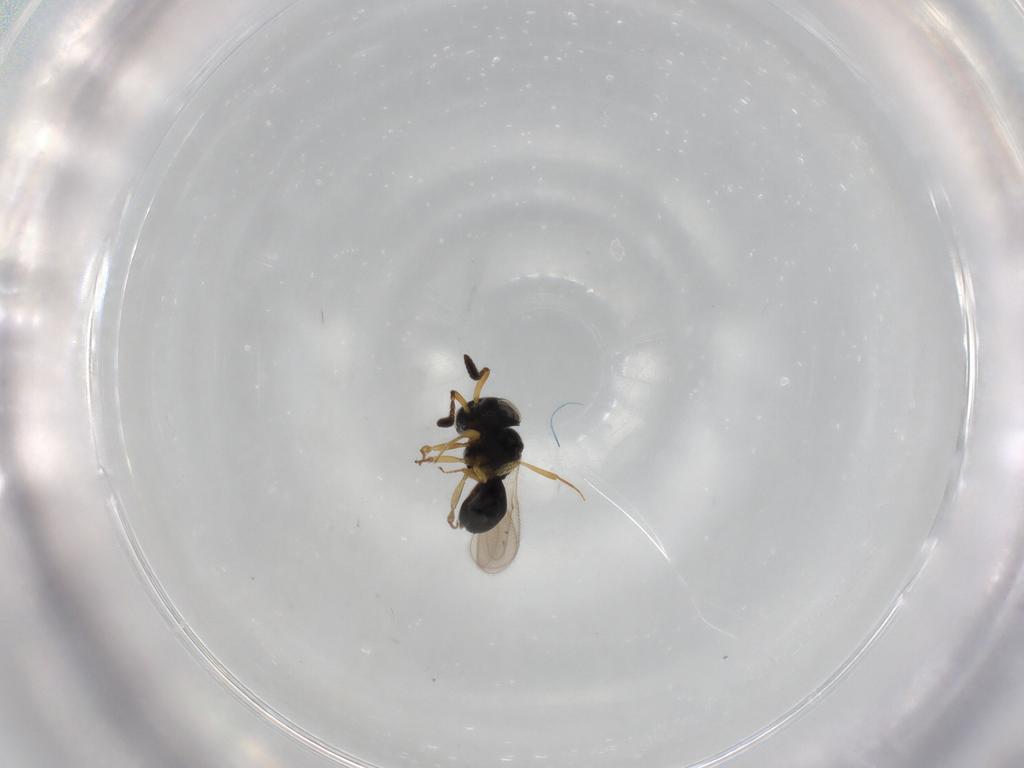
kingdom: Animalia
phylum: Arthropoda
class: Insecta
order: Hymenoptera
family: Scelionidae
